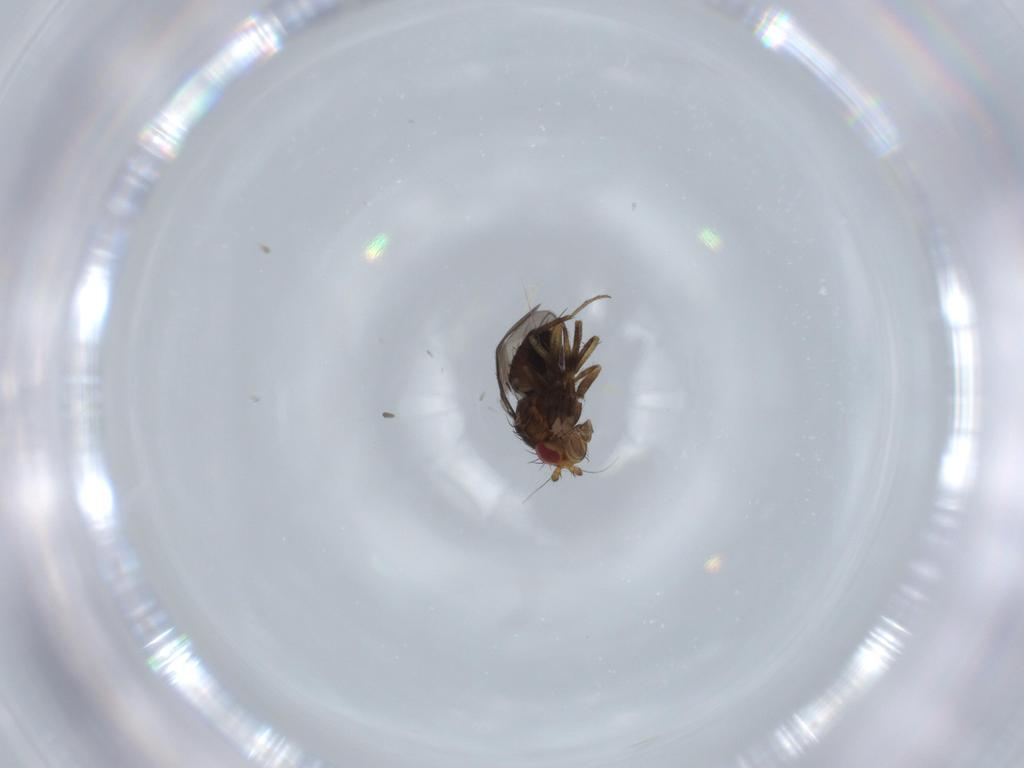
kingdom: Animalia
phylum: Arthropoda
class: Insecta
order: Diptera
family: Sphaeroceridae
